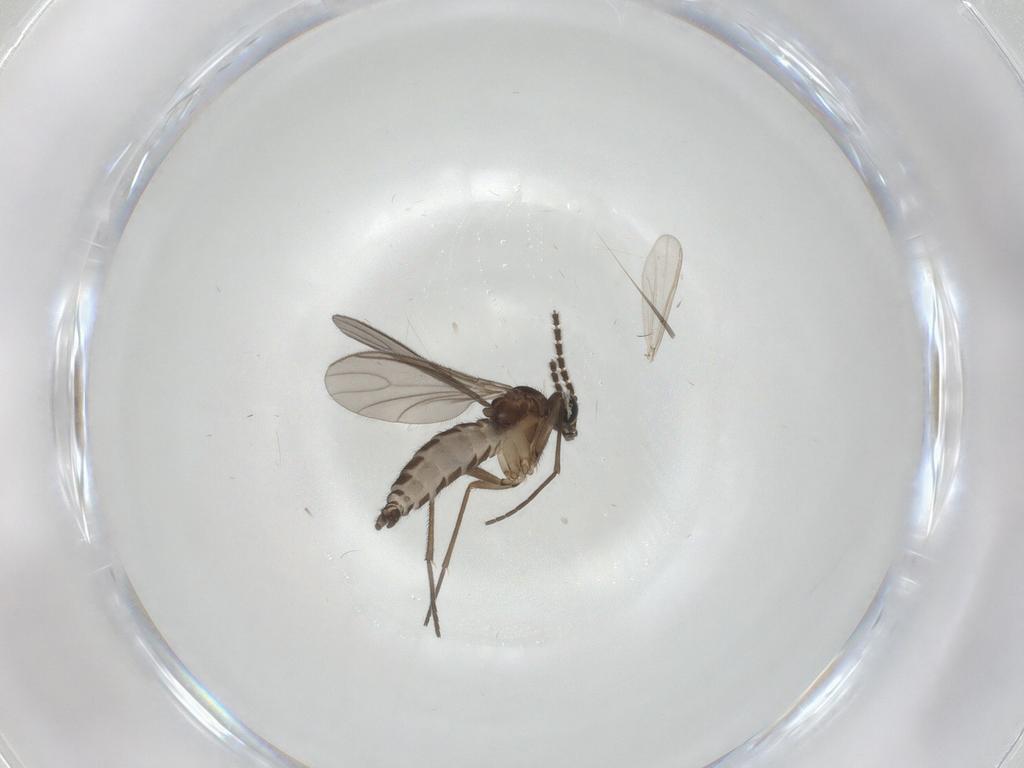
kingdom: Animalia
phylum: Arthropoda
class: Insecta
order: Diptera
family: Sciaridae
